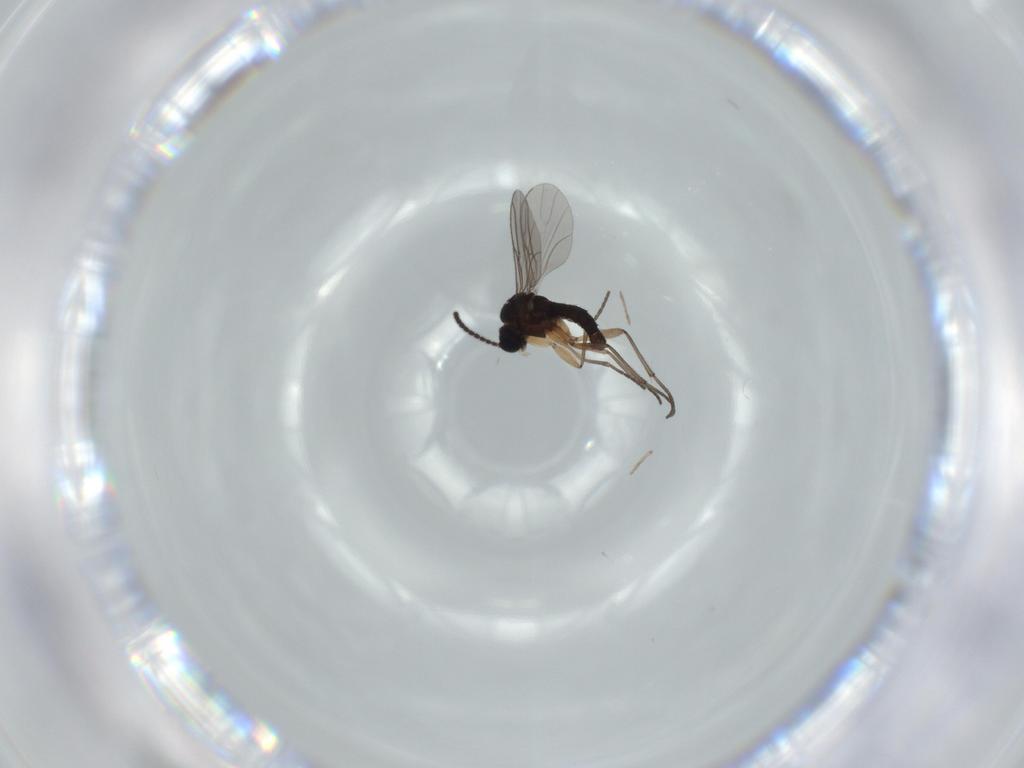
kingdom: Animalia
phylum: Arthropoda
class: Insecta
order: Diptera
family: Sciaridae
